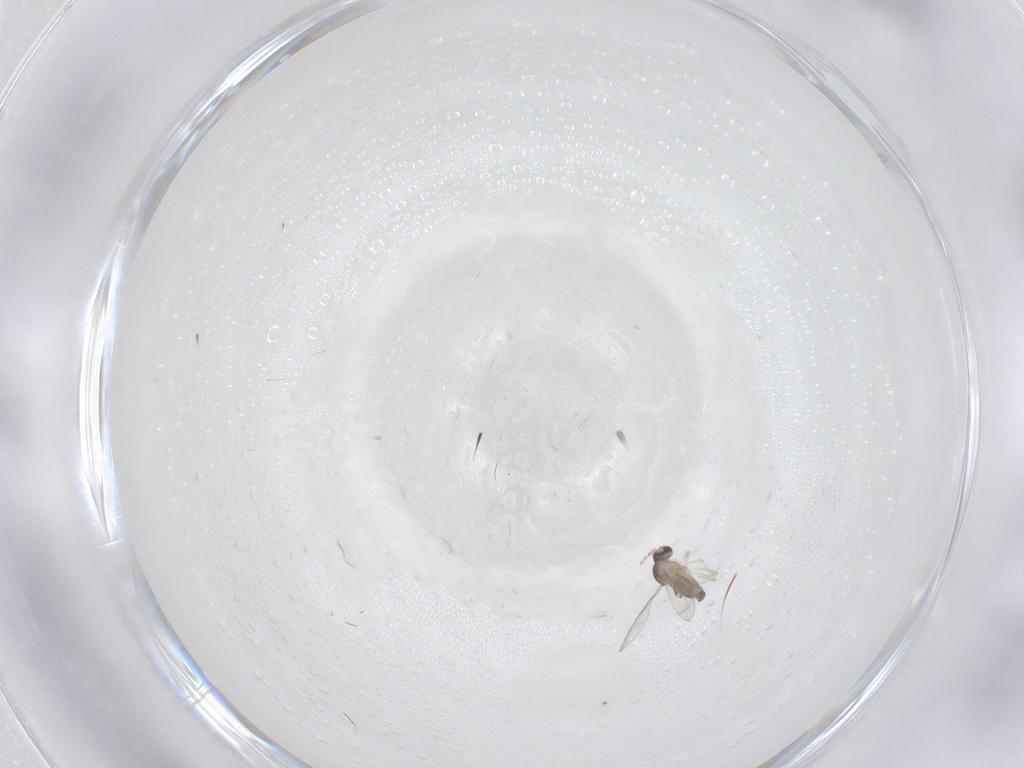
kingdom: Animalia
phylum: Arthropoda
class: Insecta
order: Diptera
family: Cecidomyiidae
